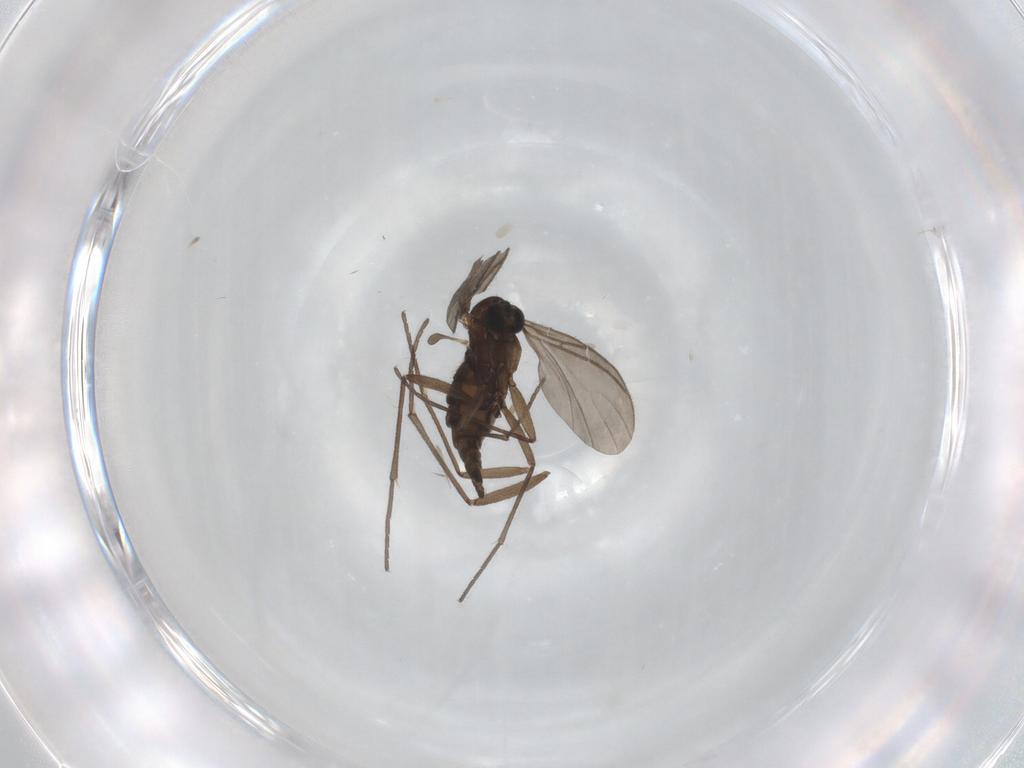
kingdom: Animalia
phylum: Arthropoda
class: Insecta
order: Diptera
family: Sciaridae
